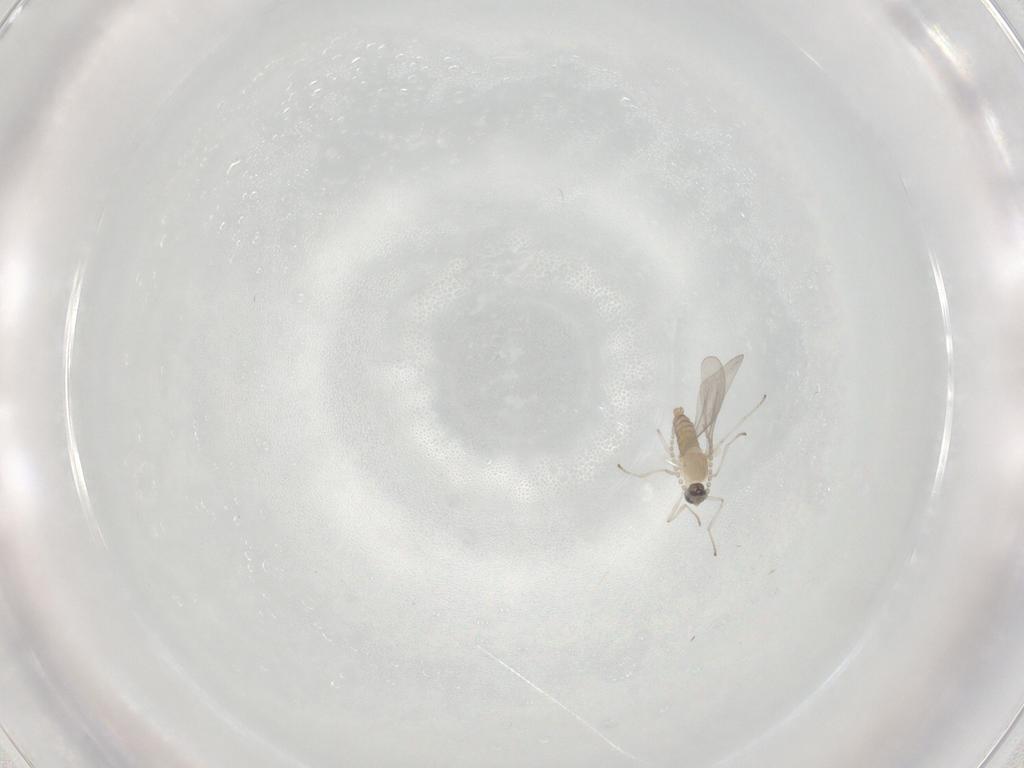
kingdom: Animalia
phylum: Arthropoda
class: Insecta
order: Diptera
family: Cecidomyiidae
